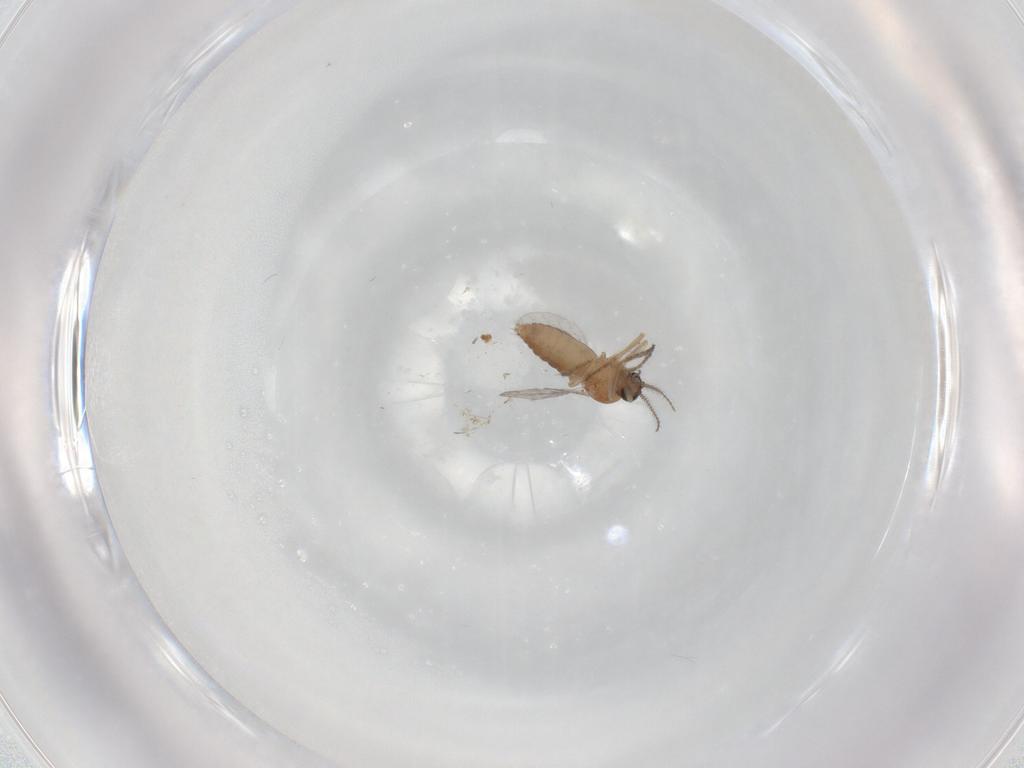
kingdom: Animalia
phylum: Arthropoda
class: Insecta
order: Diptera
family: Ceratopogonidae
